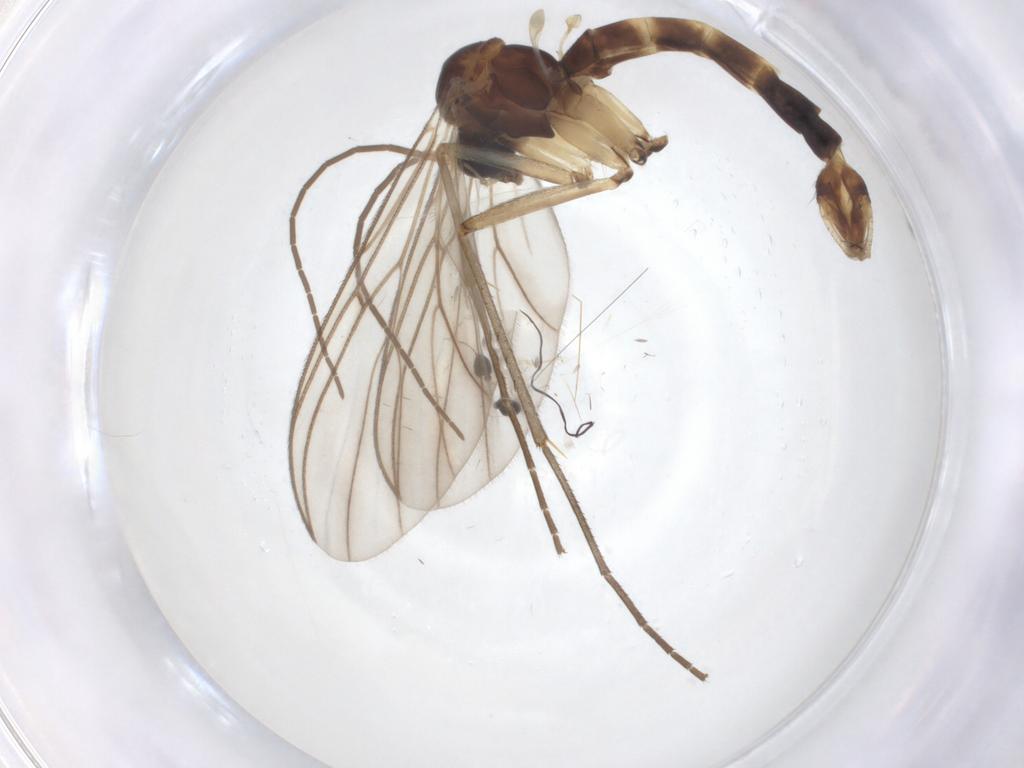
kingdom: Animalia
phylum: Arthropoda
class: Insecta
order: Diptera
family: Mycetophilidae
